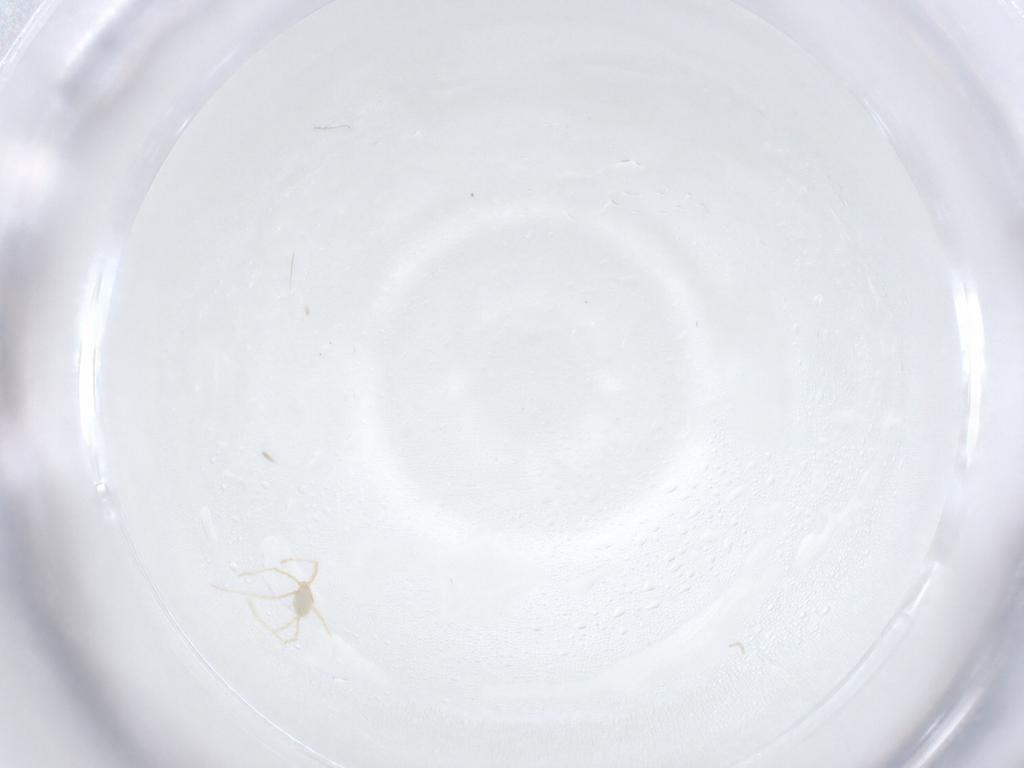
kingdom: Animalia
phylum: Arthropoda
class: Arachnida
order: Trombidiformes
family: Erythraeidae
